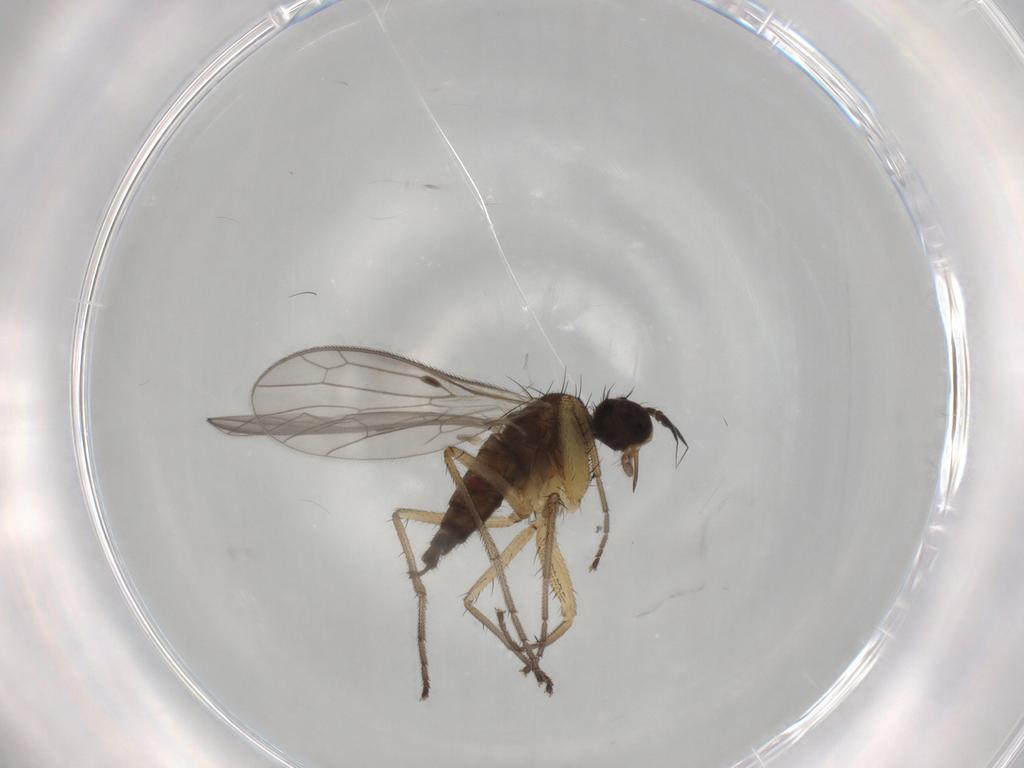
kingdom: Animalia
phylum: Arthropoda
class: Insecta
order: Diptera
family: Chironomidae
